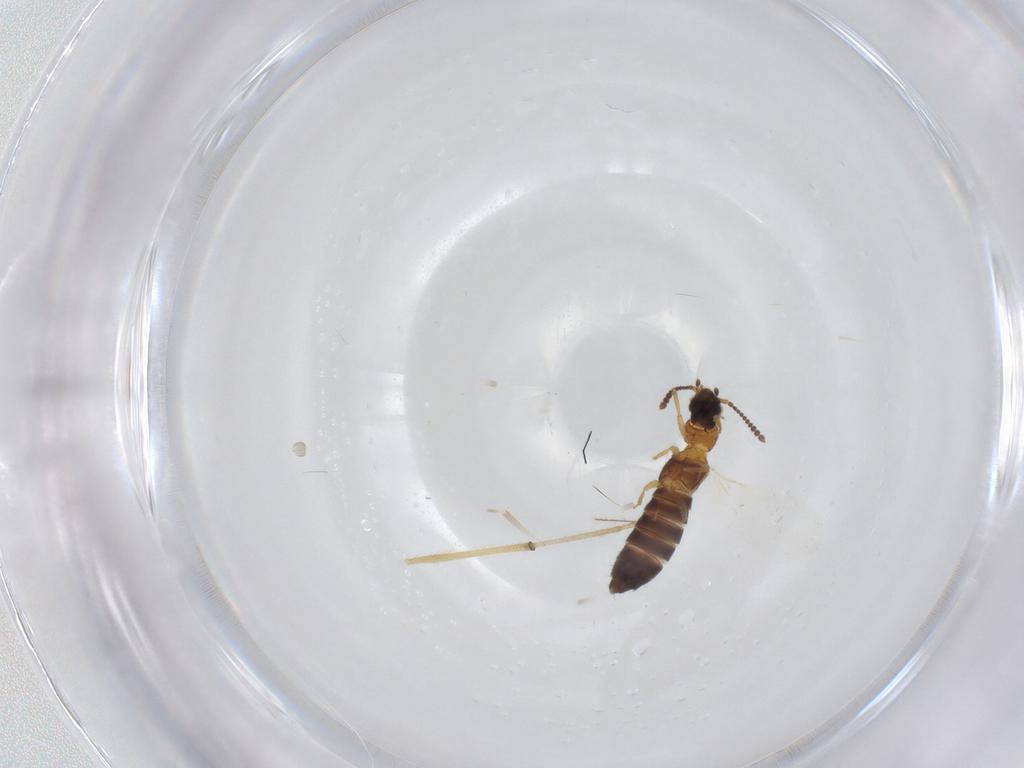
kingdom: Animalia
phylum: Arthropoda
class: Insecta
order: Coleoptera
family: Staphylinidae
